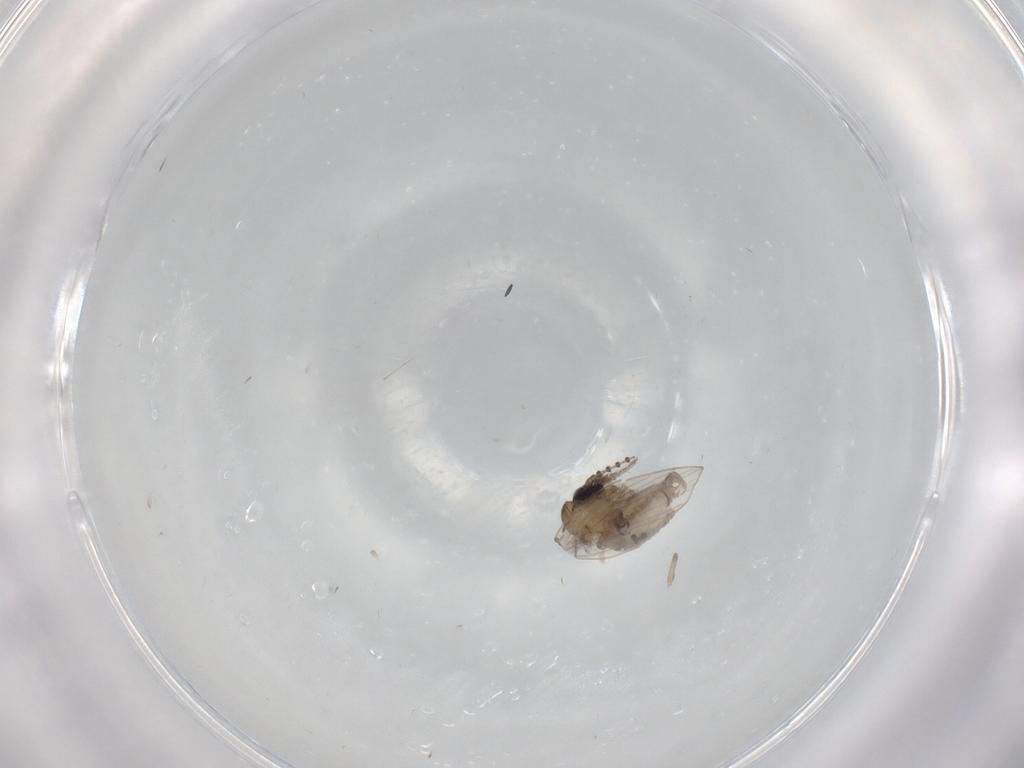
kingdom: Animalia
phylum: Arthropoda
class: Insecta
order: Diptera
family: Psychodidae
